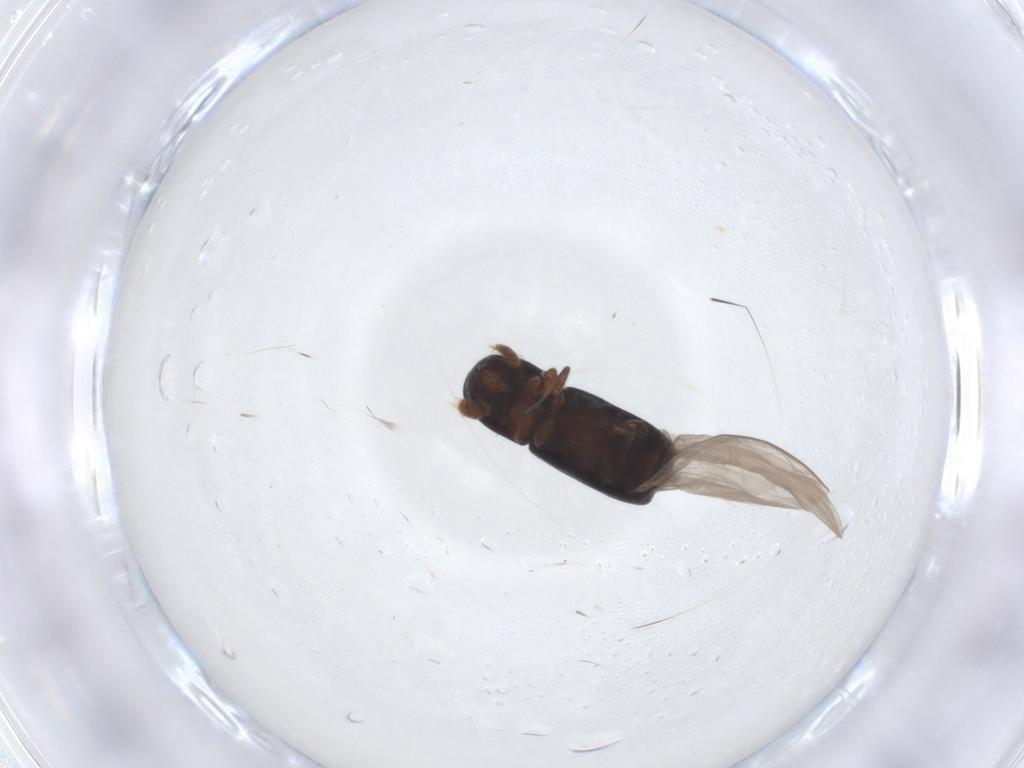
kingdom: Animalia
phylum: Arthropoda
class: Insecta
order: Coleoptera
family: Curculionidae
